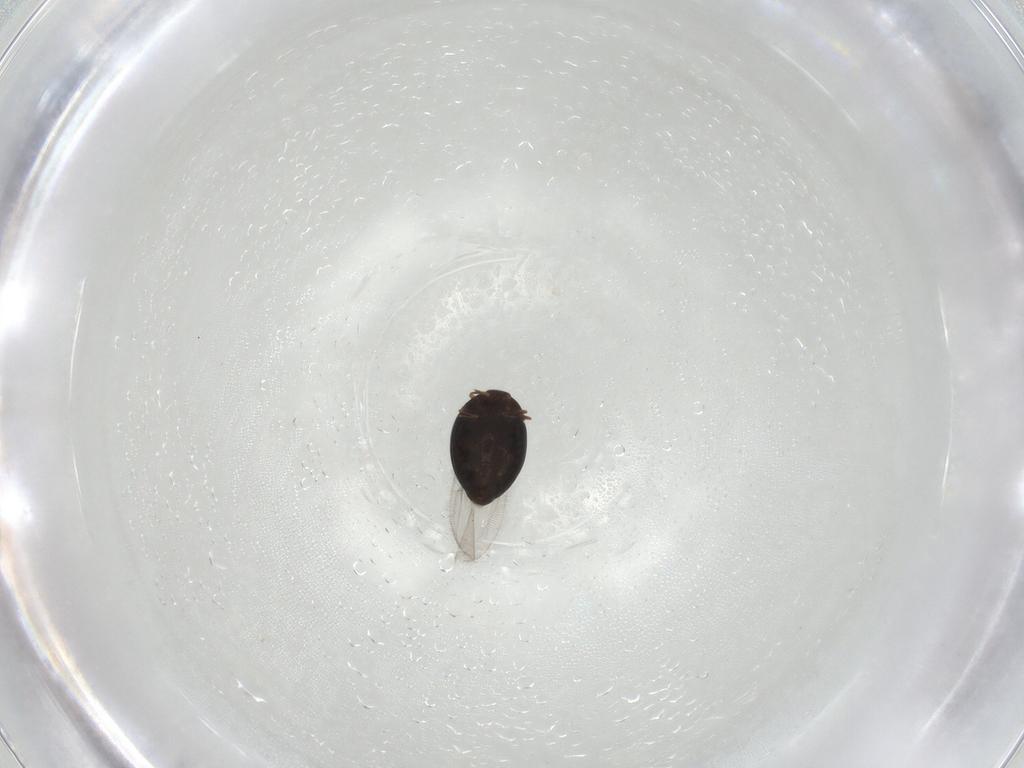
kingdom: Animalia
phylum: Arthropoda
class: Insecta
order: Coleoptera
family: Corylophidae
